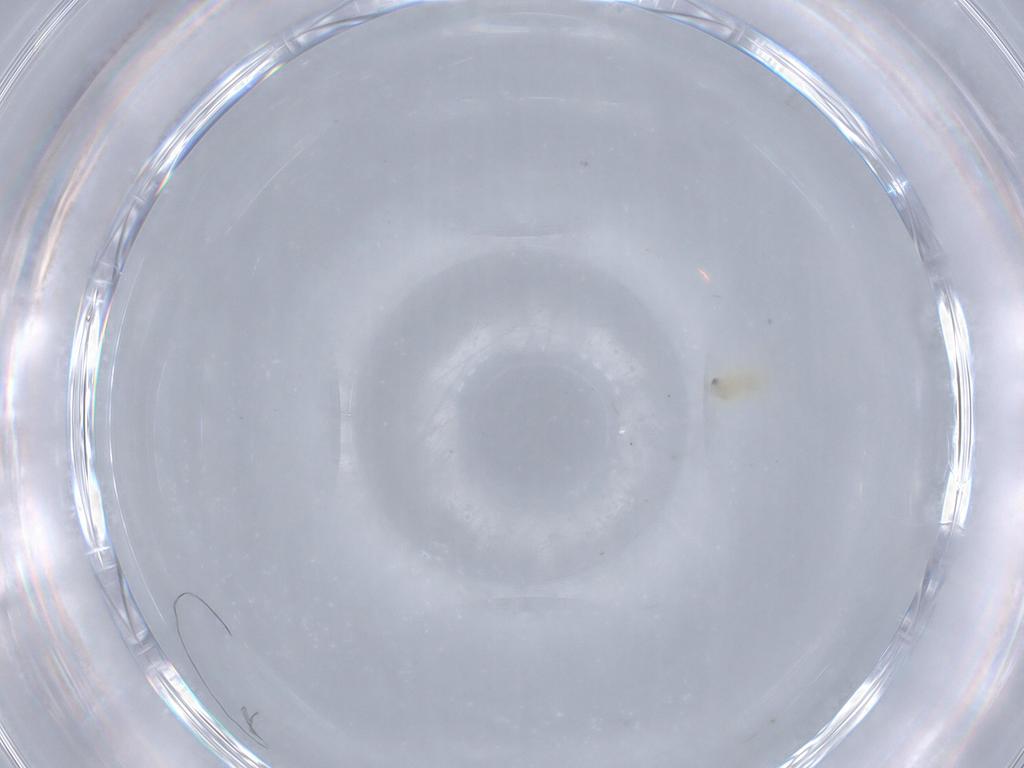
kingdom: Animalia
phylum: Arthropoda
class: Insecta
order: Hemiptera
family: Aleyrodidae
